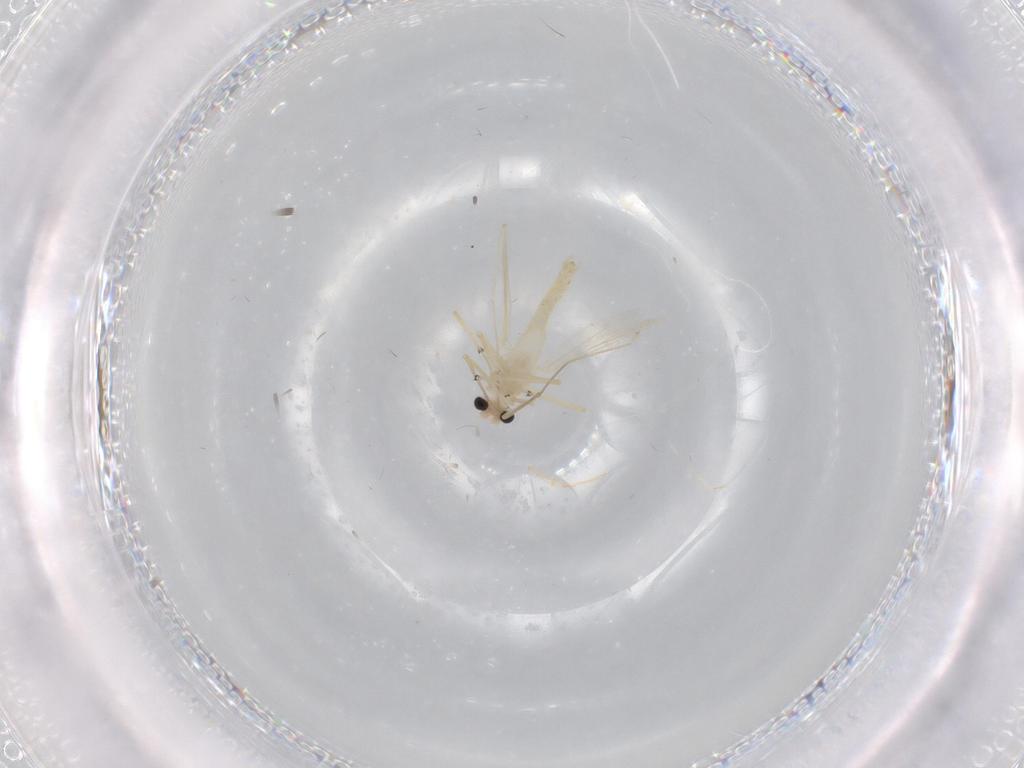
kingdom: Animalia
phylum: Arthropoda
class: Insecta
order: Diptera
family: Chironomidae
